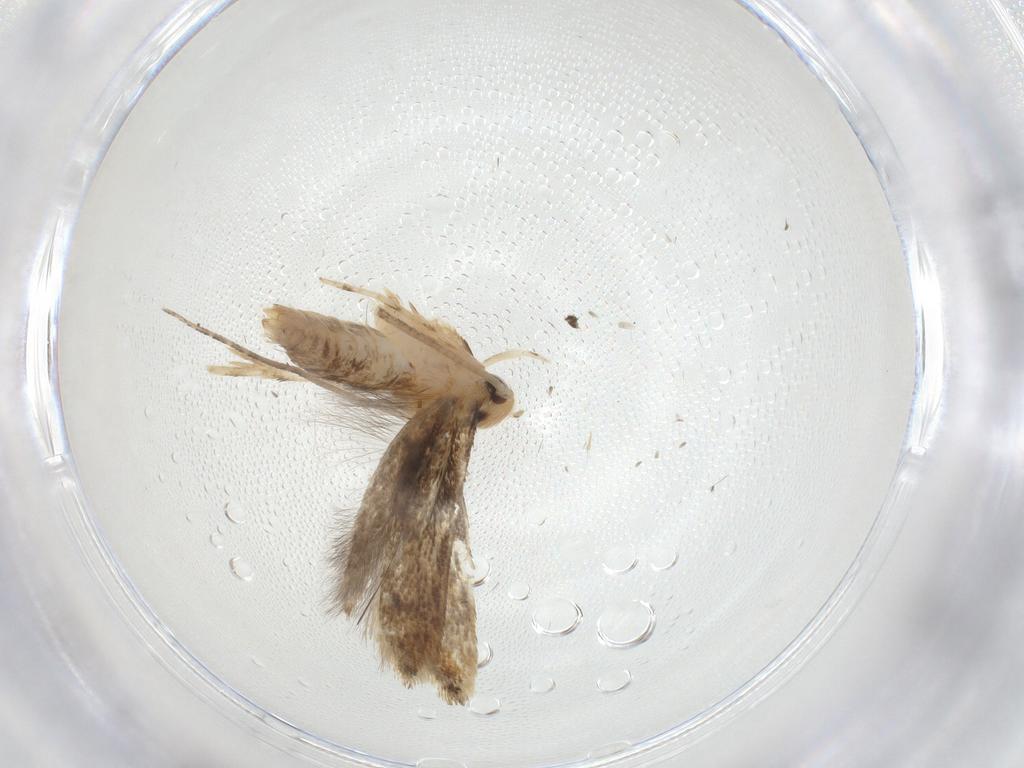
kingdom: Animalia
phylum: Arthropoda
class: Insecta
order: Lepidoptera
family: Momphidae
